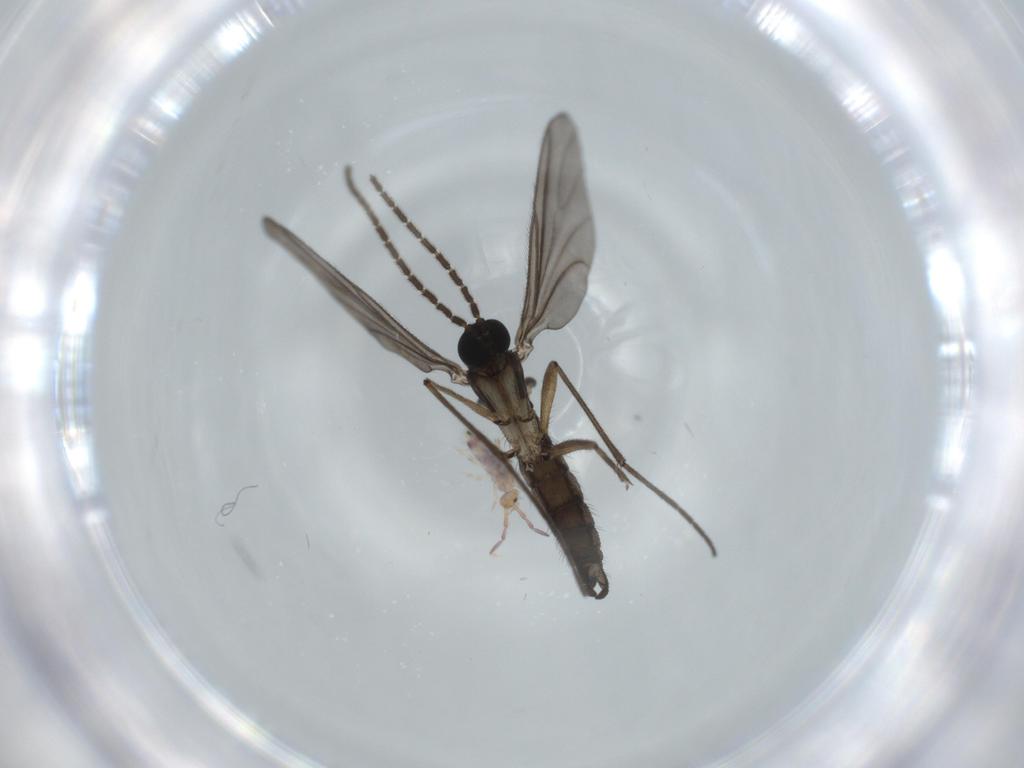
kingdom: Animalia
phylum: Arthropoda
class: Insecta
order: Diptera
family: Sciaridae
